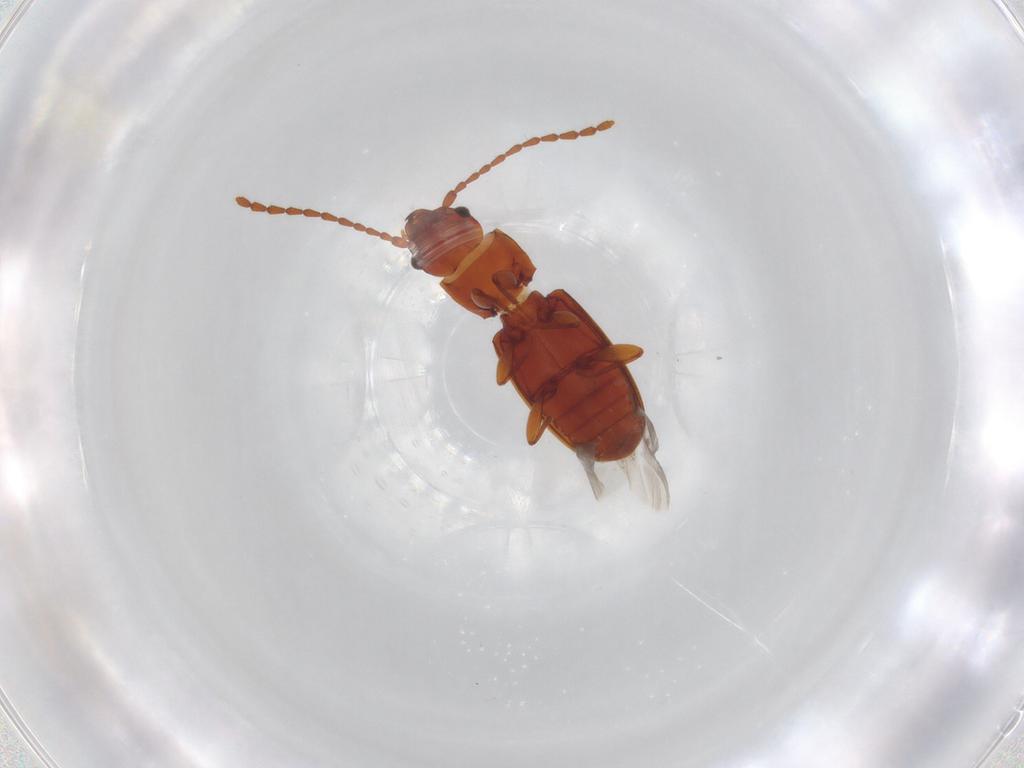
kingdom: Animalia
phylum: Arthropoda
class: Insecta
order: Coleoptera
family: Laemophloeidae
